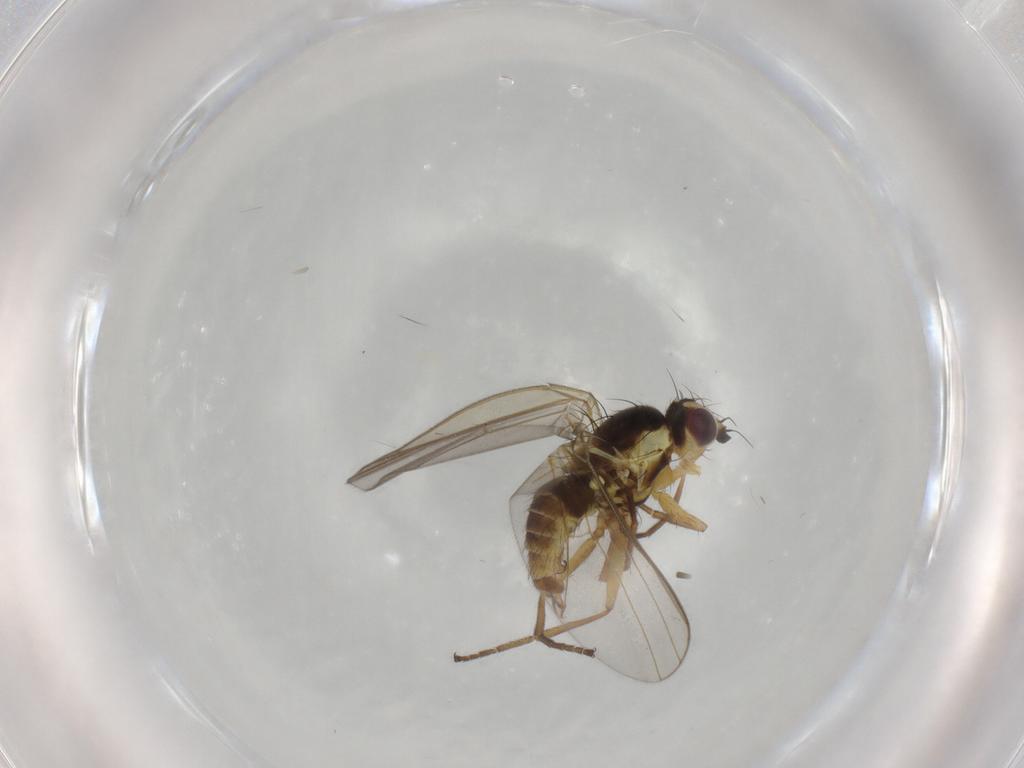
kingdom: Animalia
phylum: Arthropoda
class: Insecta
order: Diptera
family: Agromyzidae
